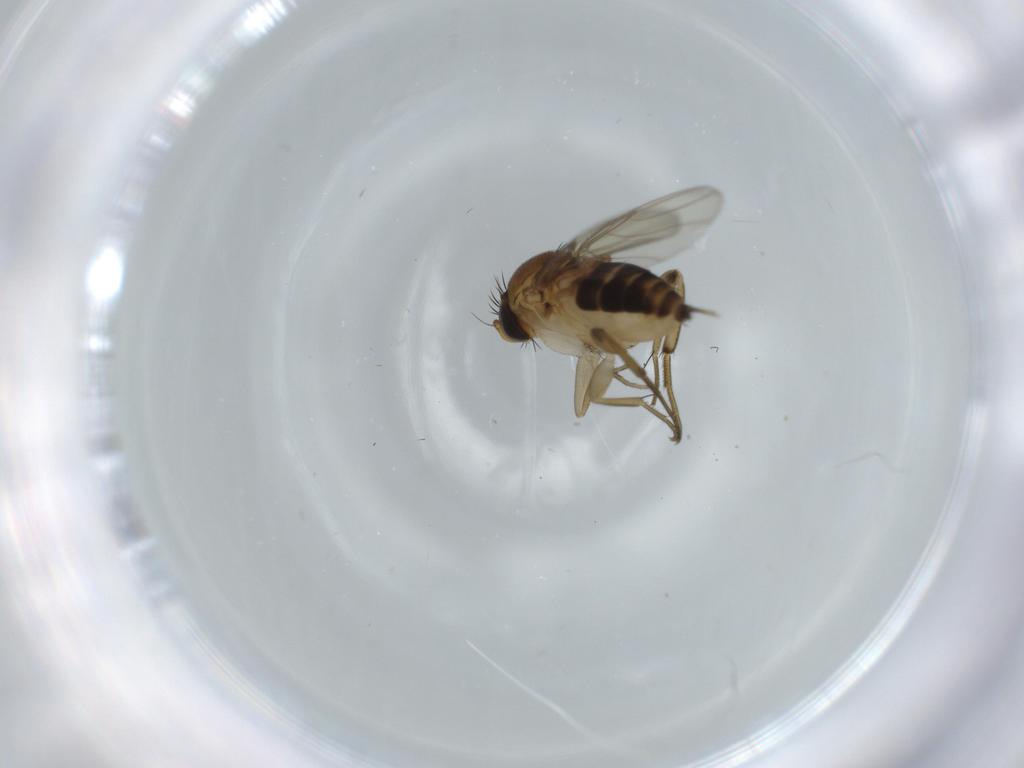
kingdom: Animalia
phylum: Arthropoda
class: Insecta
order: Diptera
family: Stratiomyidae
